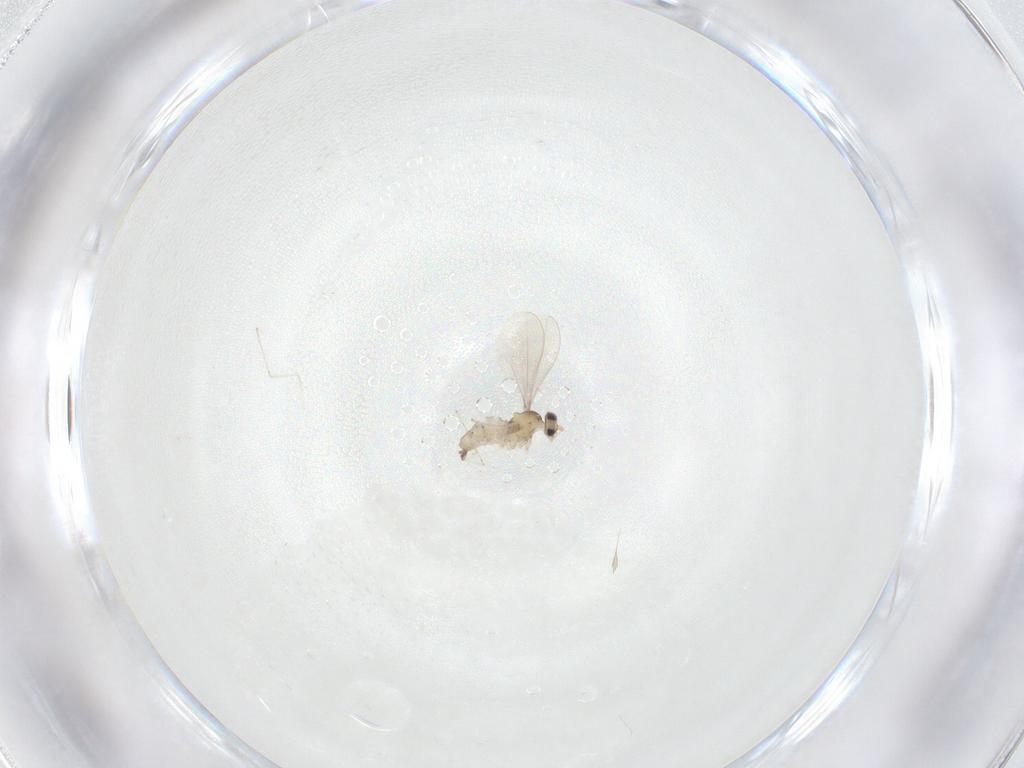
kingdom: Animalia
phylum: Arthropoda
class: Insecta
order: Diptera
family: Cecidomyiidae
